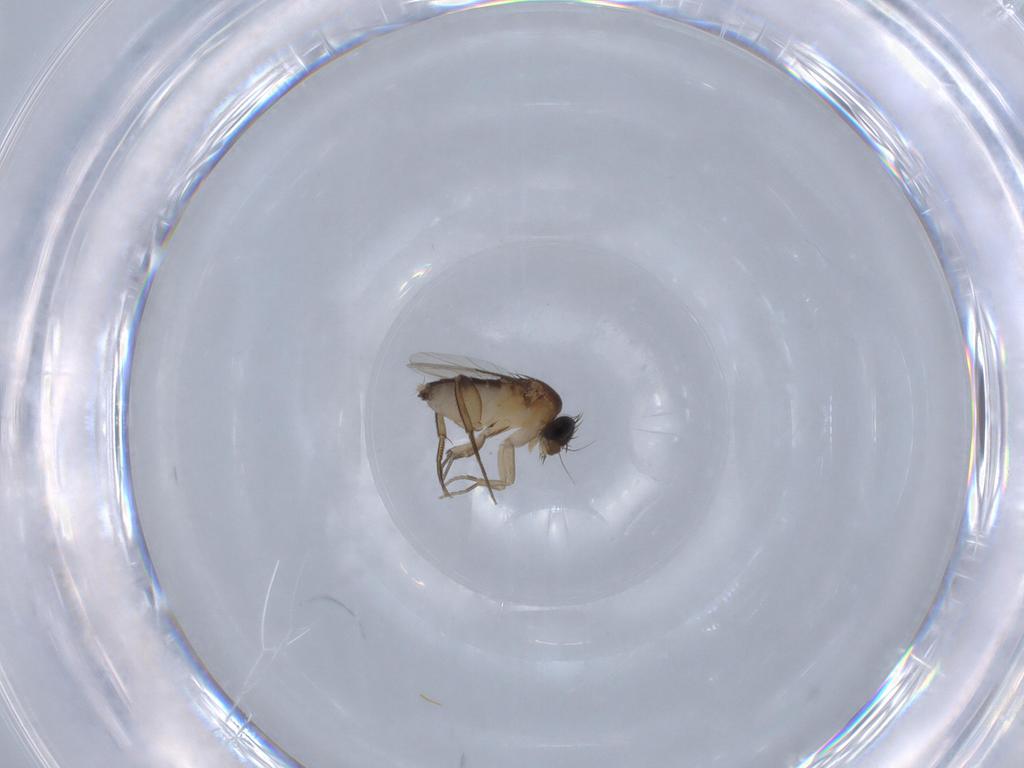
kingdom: Animalia
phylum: Arthropoda
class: Insecta
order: Diptera
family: Phoridae
